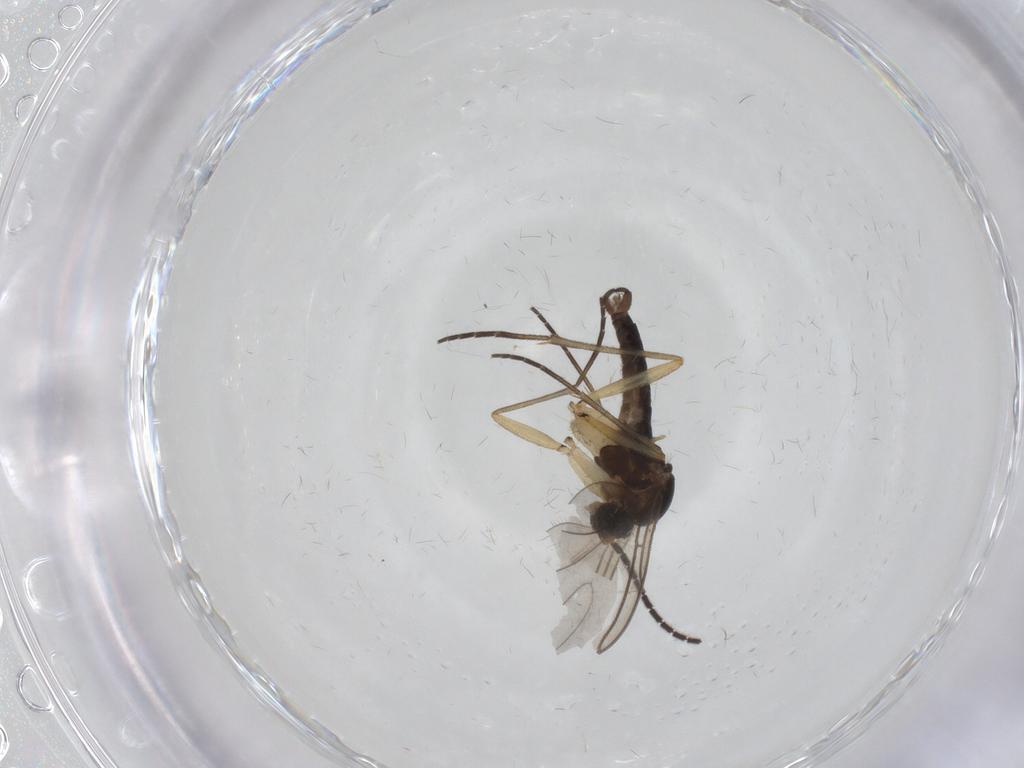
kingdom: Animalia
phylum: Arthropoda
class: Insecta
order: Diptera
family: Sciaridae
